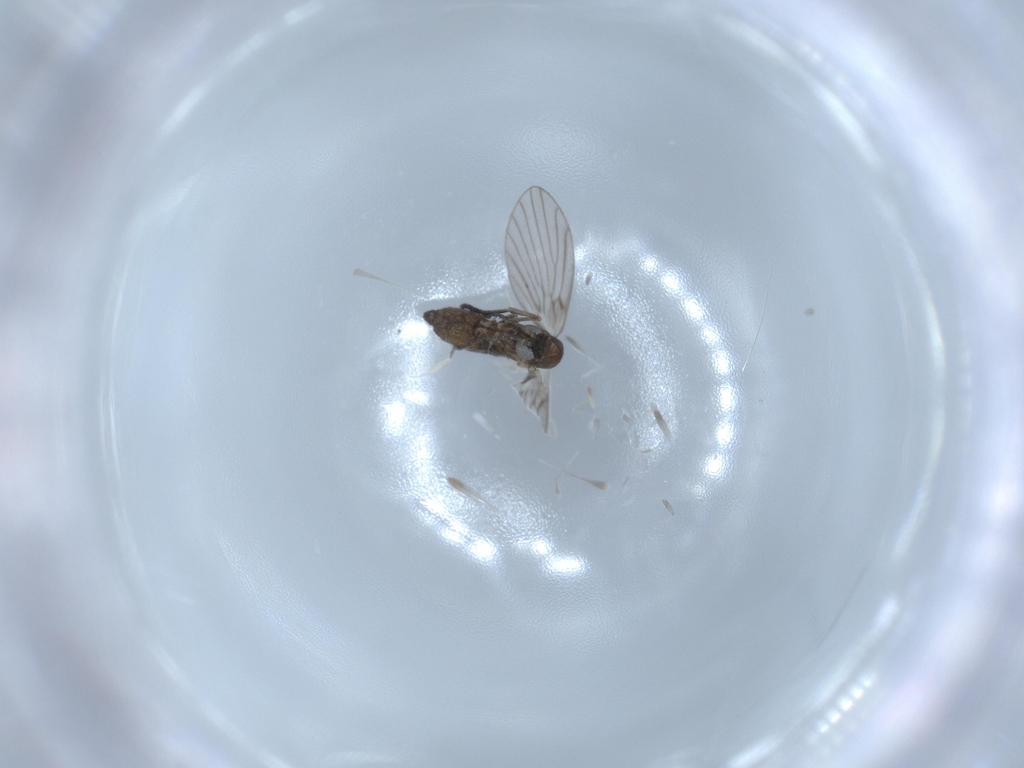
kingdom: Animalia
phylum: Arthropoda
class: Insecta
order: Diptera
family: Psychodidae
